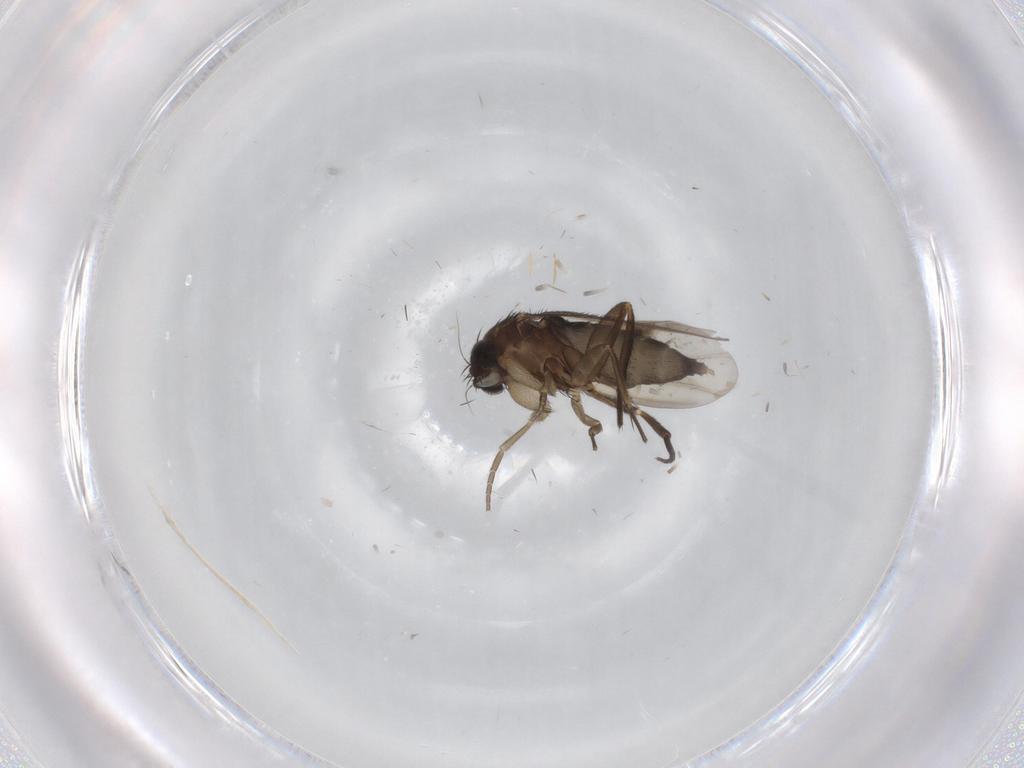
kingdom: Animalia
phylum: Arthropoda
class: Insecta
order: Diptera
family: Phoridae
